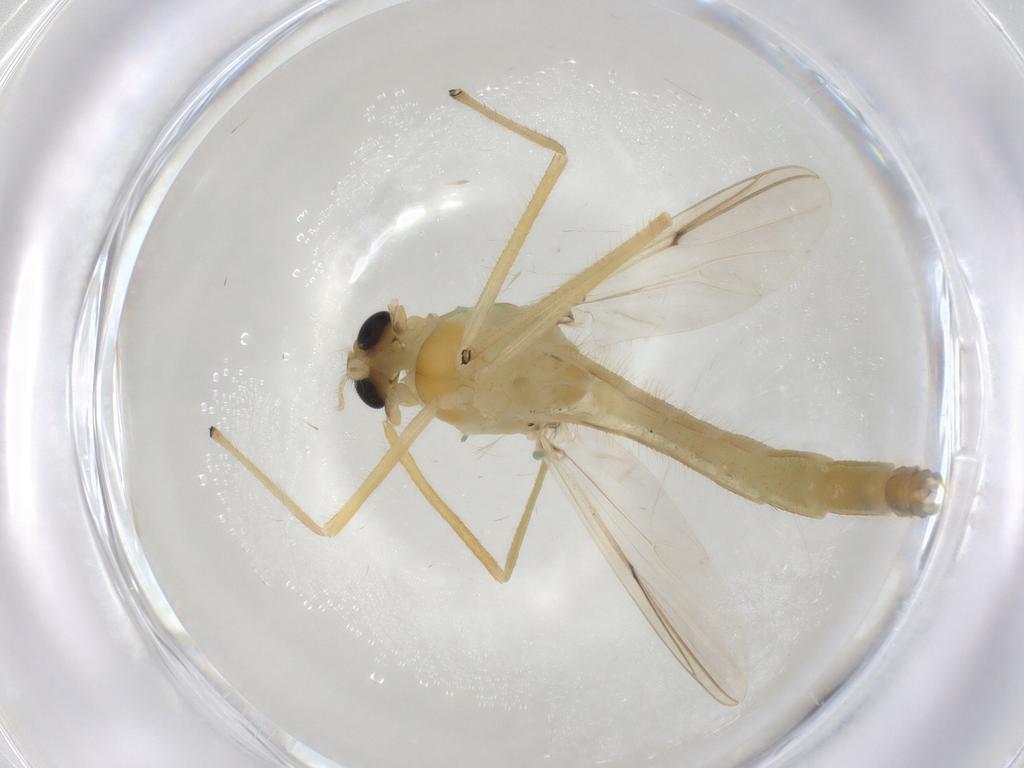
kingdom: Animalia
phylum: Arthropoda
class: Insecta
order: Diptera
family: Chironomidae
